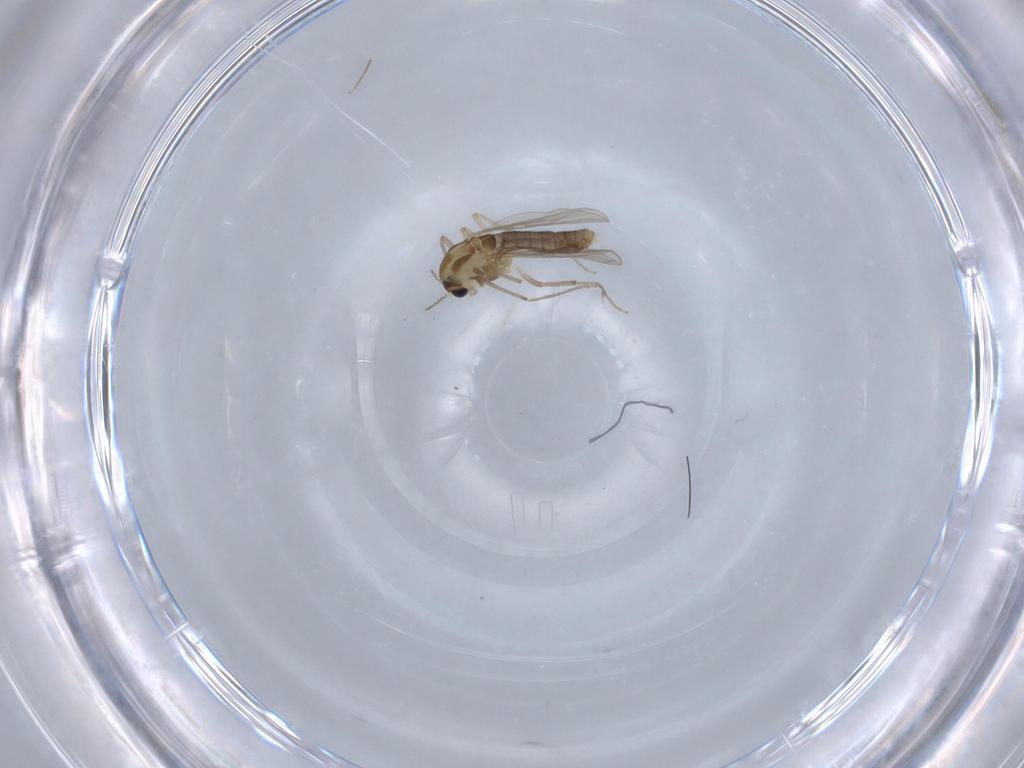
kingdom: Animalia
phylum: Arthropoda
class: Insecta
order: Diptera
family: Chironomidae
